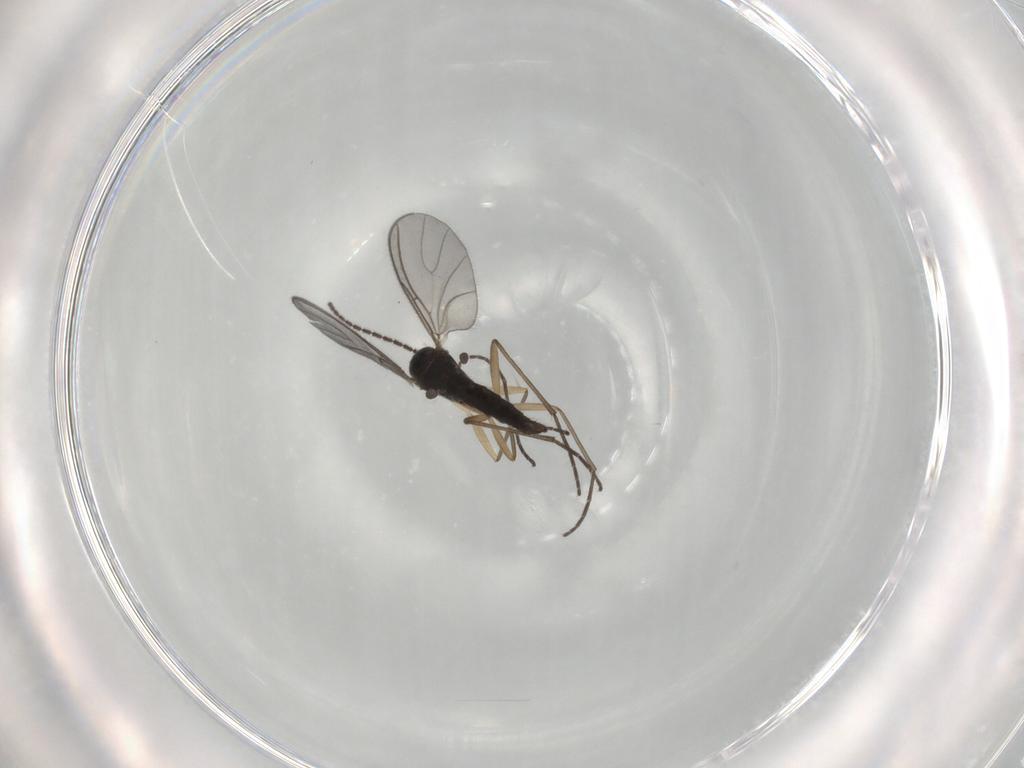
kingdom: Animalia
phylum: Arthropoda
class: Insecta
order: Diptera
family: Sciaridae
